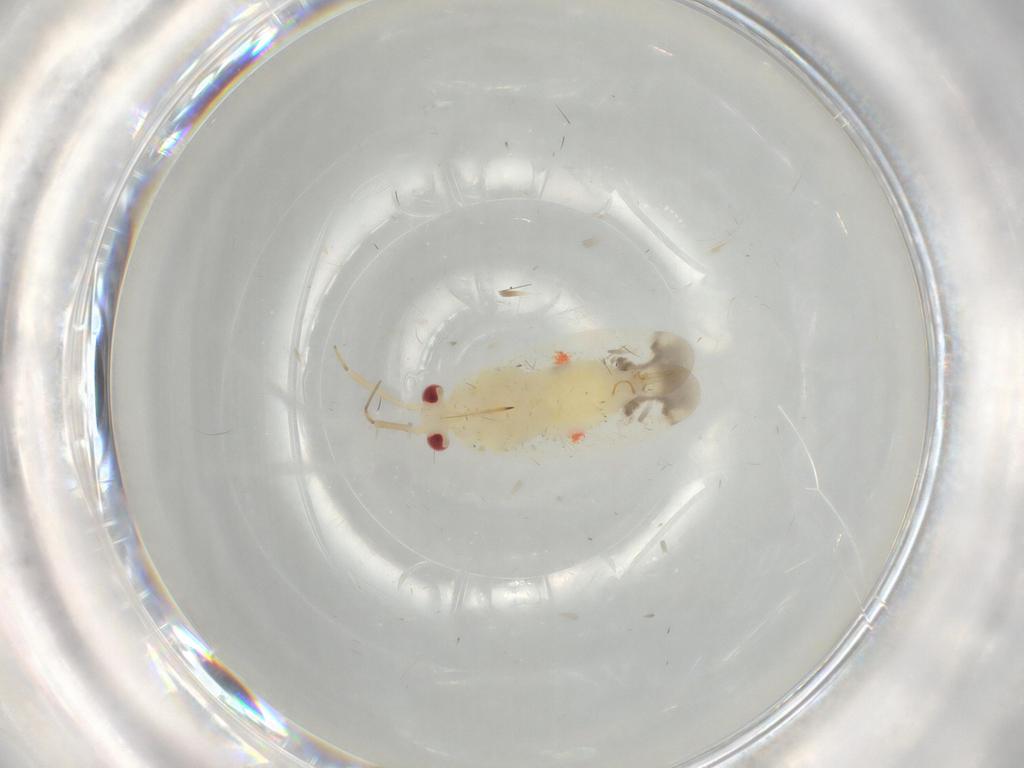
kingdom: Animalia
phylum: Arthropoda
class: Insecta
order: Hemiptera
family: Miridae
